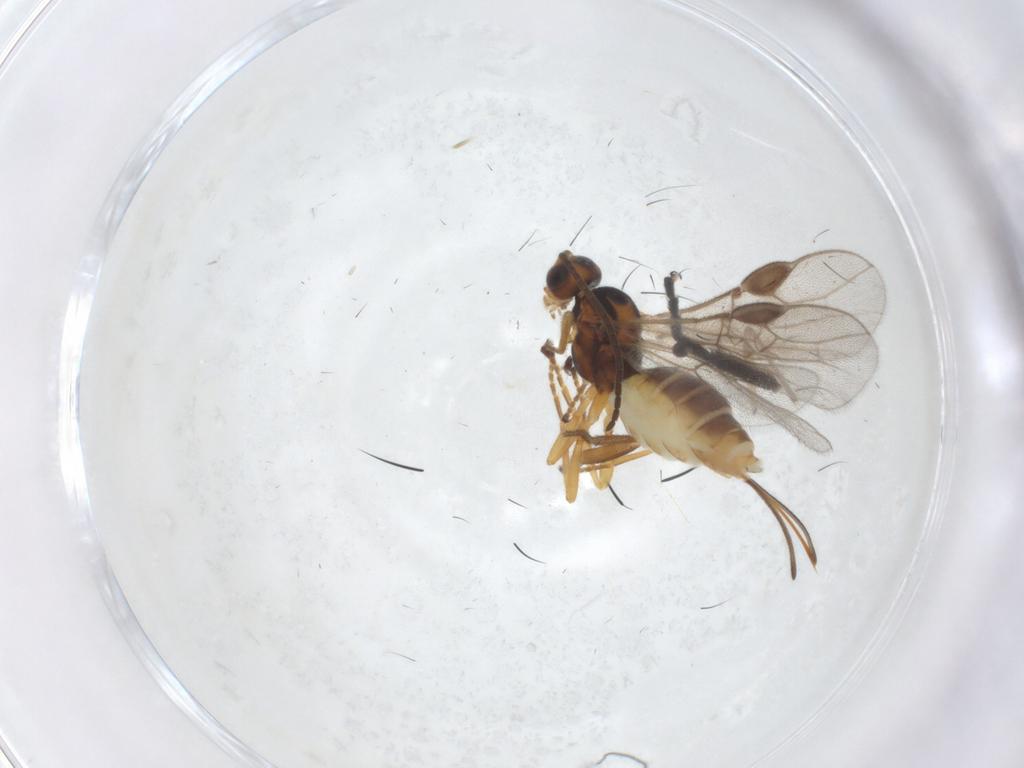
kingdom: Animalia
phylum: Arthropoda
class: Insecta
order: Hymenoptera
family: Braconidae
